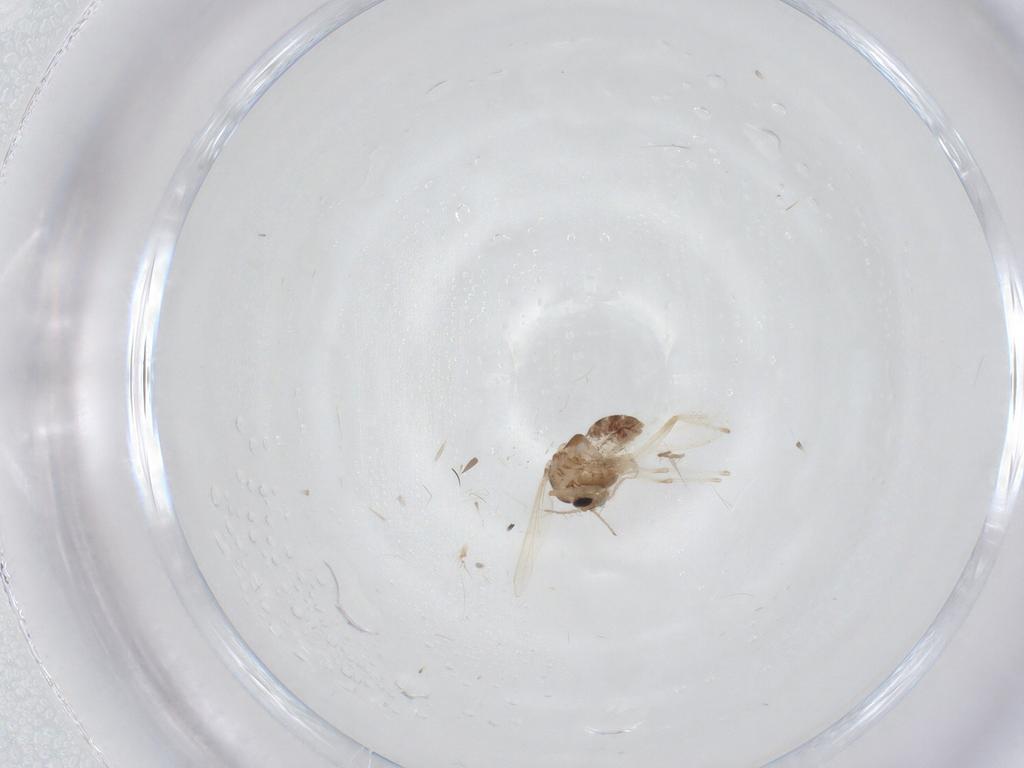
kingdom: Animalia
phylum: Arthropoda
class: Insecta
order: Diptera
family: Chironomidae
